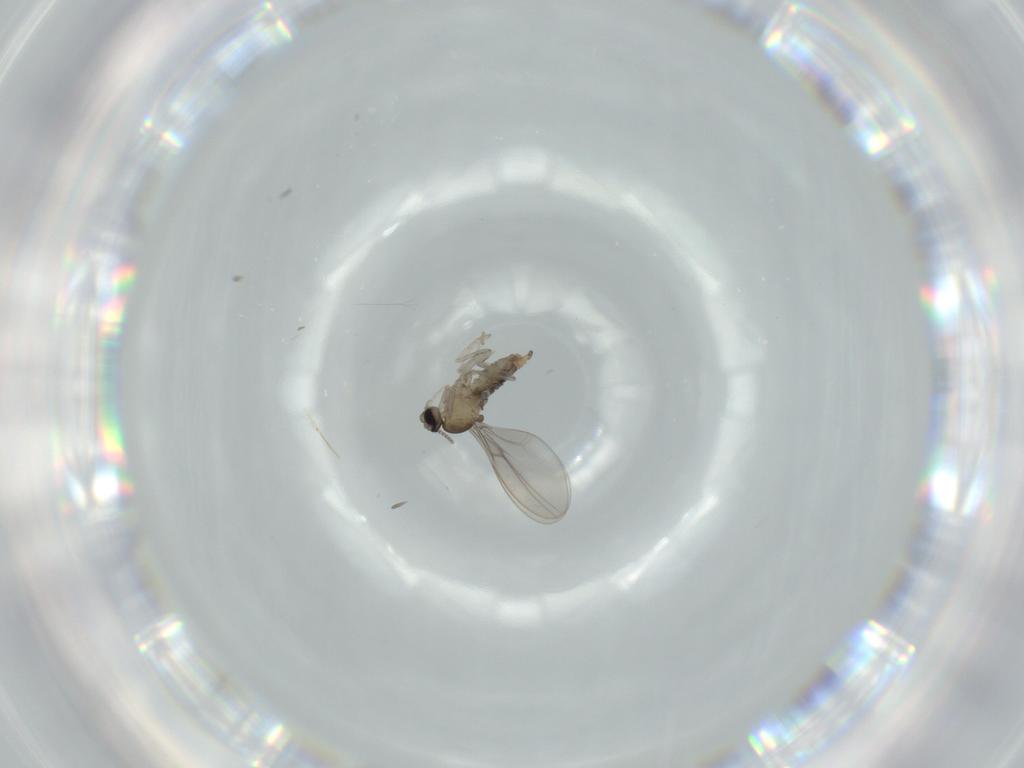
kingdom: Animalia
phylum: Arthropoda
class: Insecta
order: Diptera
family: Cecidomyiidae
